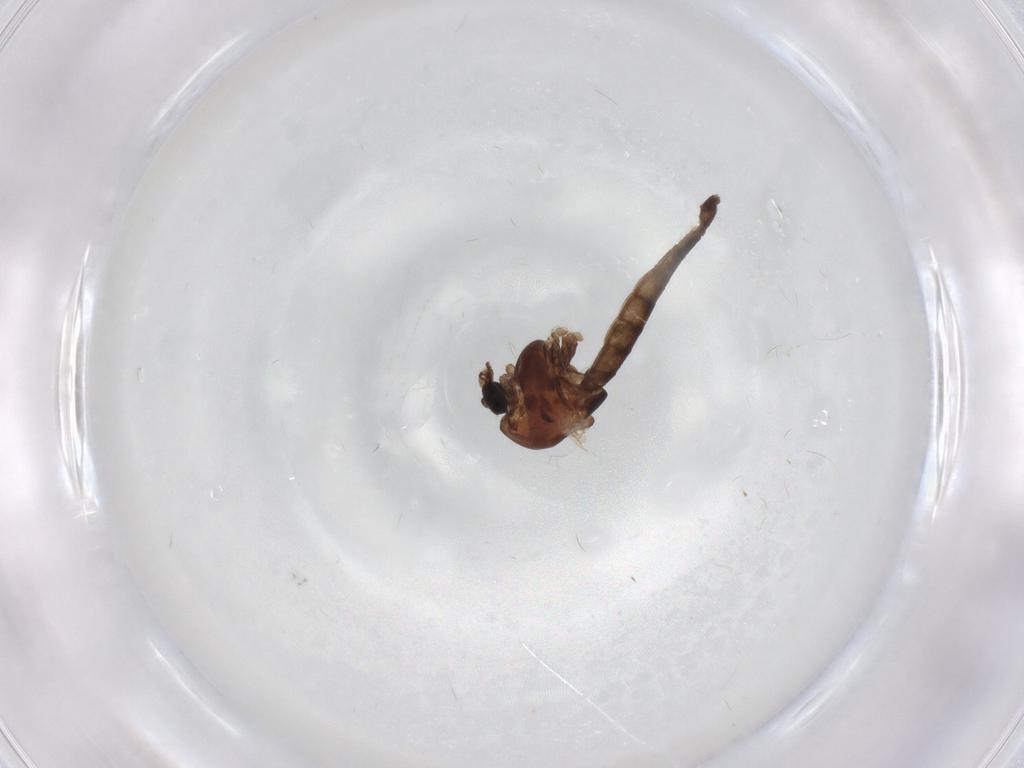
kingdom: Animalia
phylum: Arthropoda
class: Insecta
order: Diptera
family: Chironomidae
